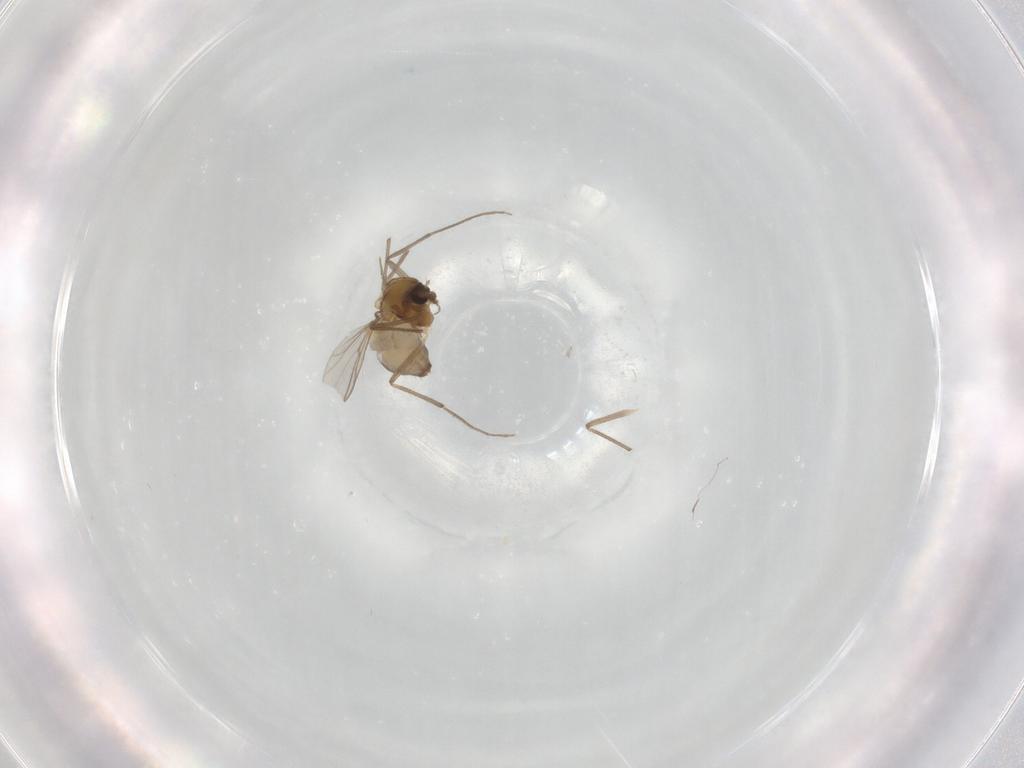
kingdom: Animalia
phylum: Arthropoda
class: Insecta
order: Diptera
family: Chironomidae
